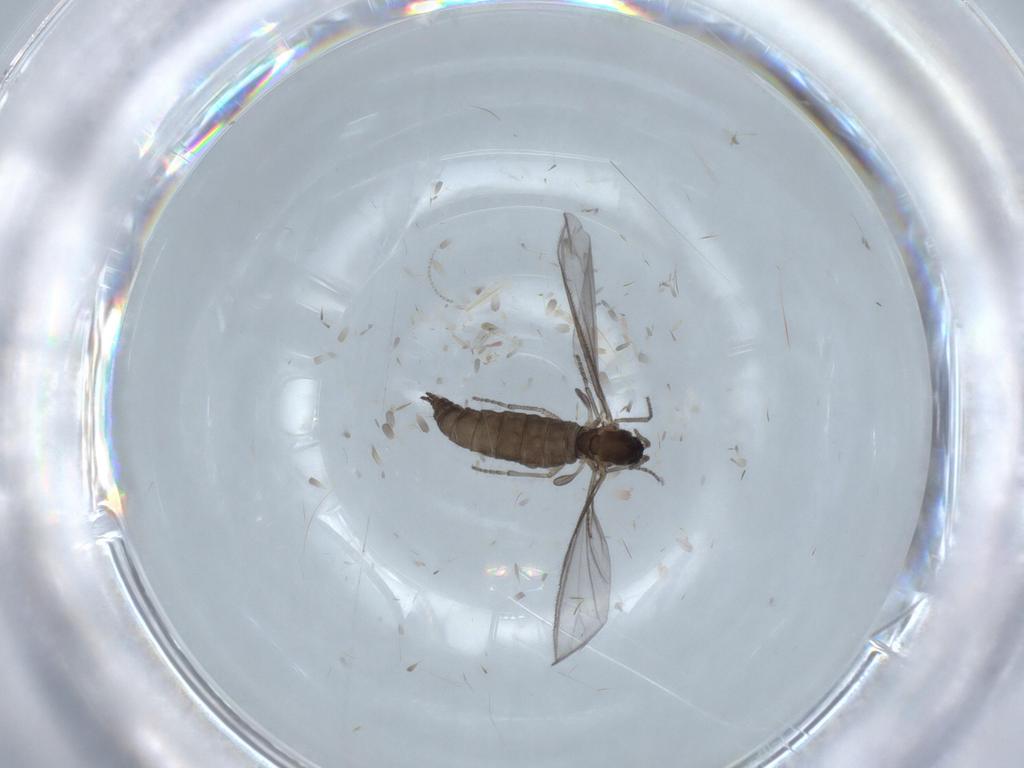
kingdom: Animalia
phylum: Arthropoda
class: Insecta
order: Diptera
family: Sciaridae
